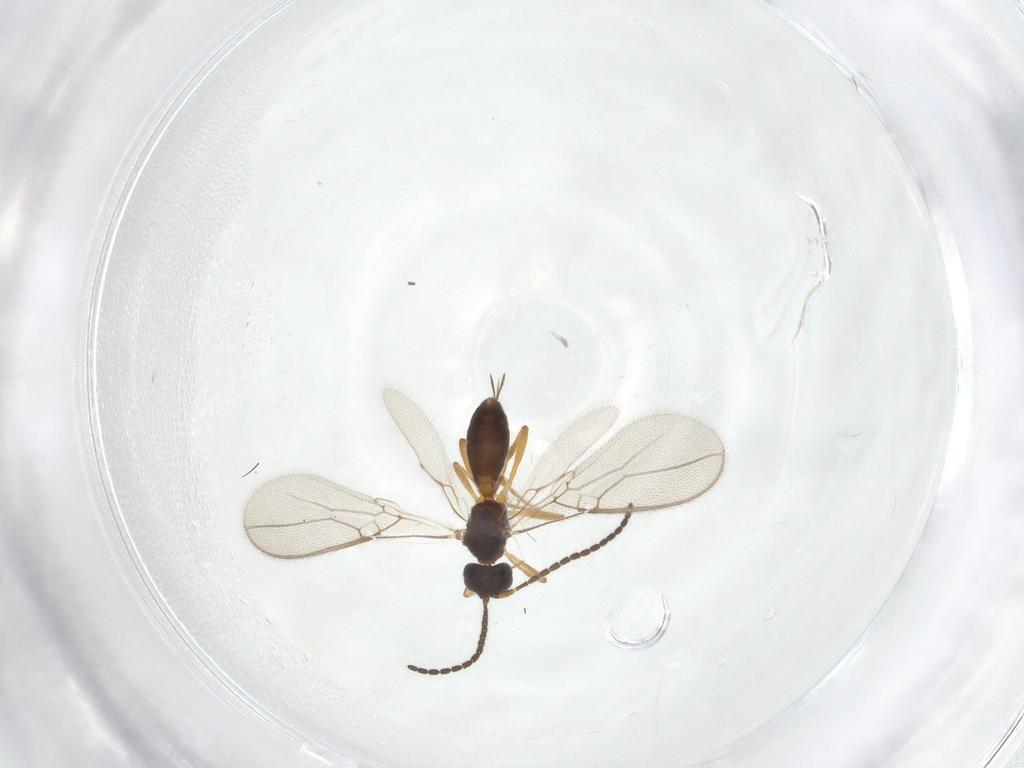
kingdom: Animalia
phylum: Arthropoda
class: Insecta
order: Hymenoptera
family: Braconidae
